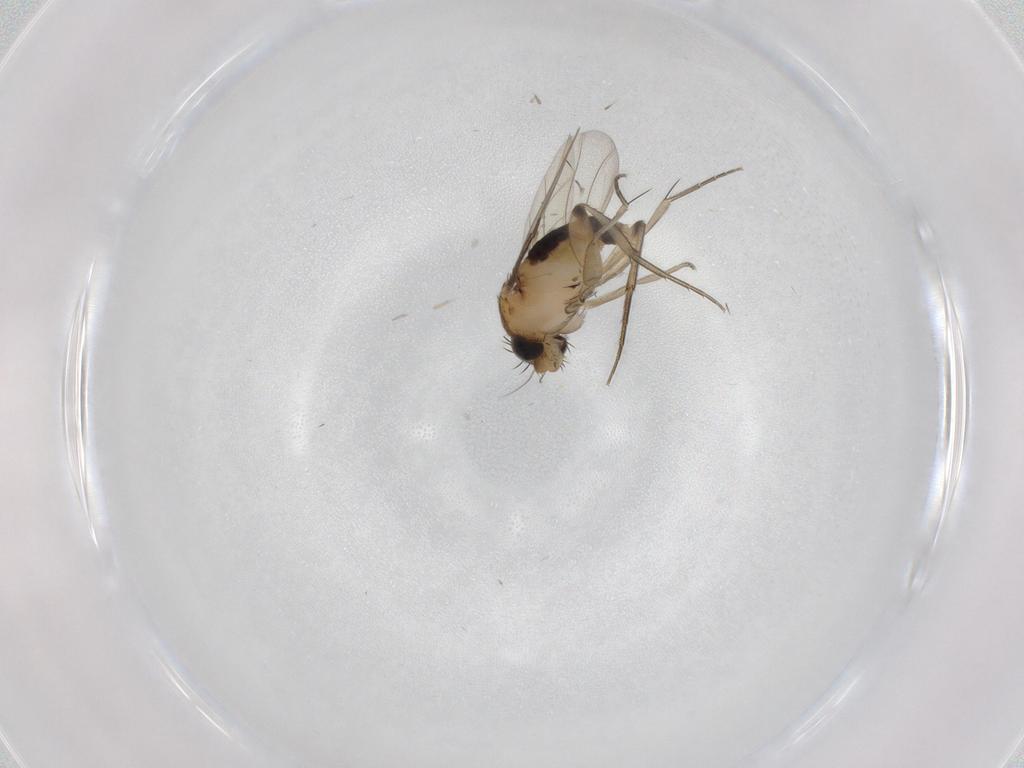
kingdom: Animalia
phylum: Arthropoda
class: Insecta
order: Diptera
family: Phoridae
